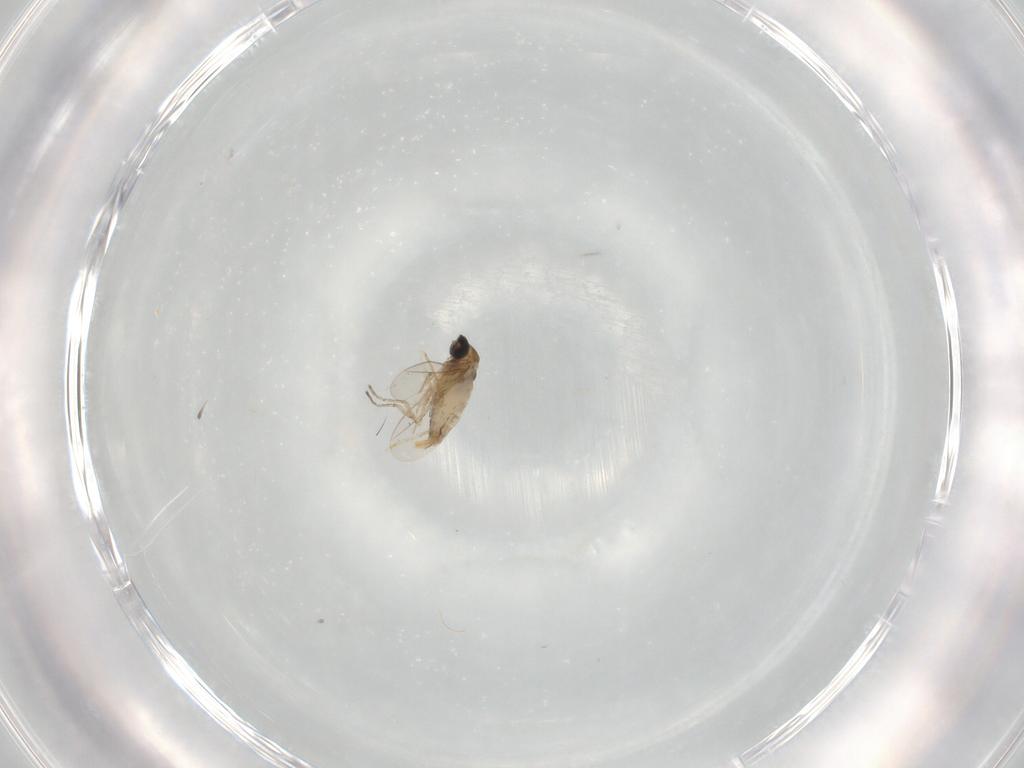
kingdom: Animalia
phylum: Arthropoda
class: Insecta
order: Diptera
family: Cecidomyiidae
